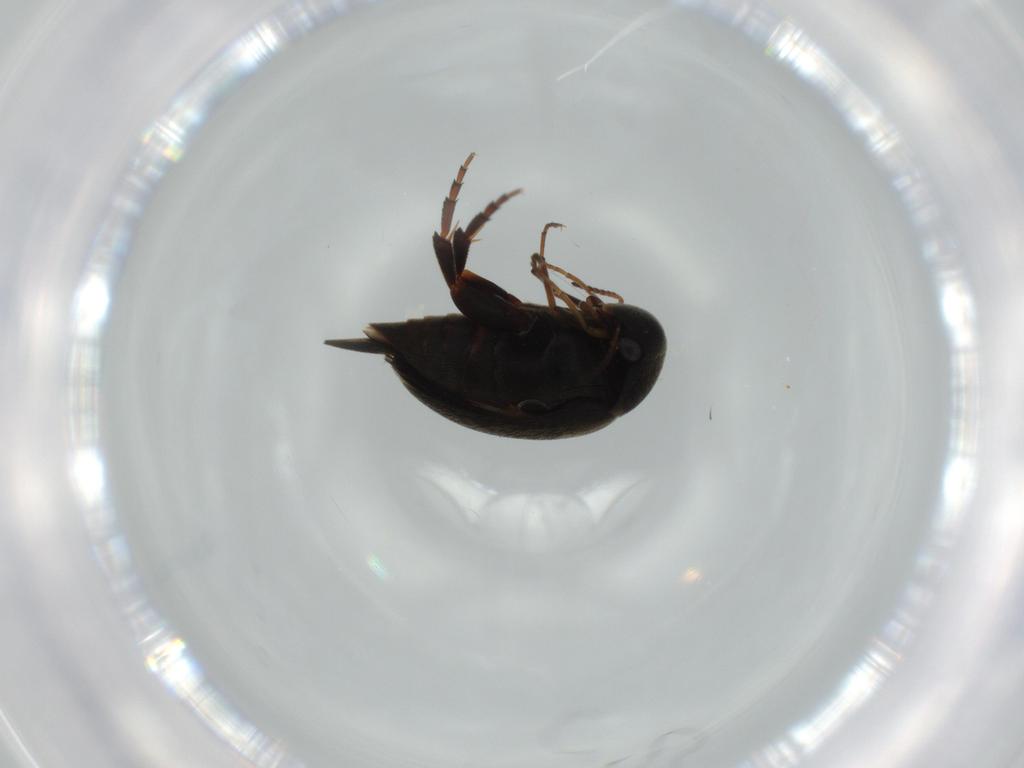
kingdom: Animalia
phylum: Arthropoda
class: Insecta
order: Coleoptera
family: Mordellidae
